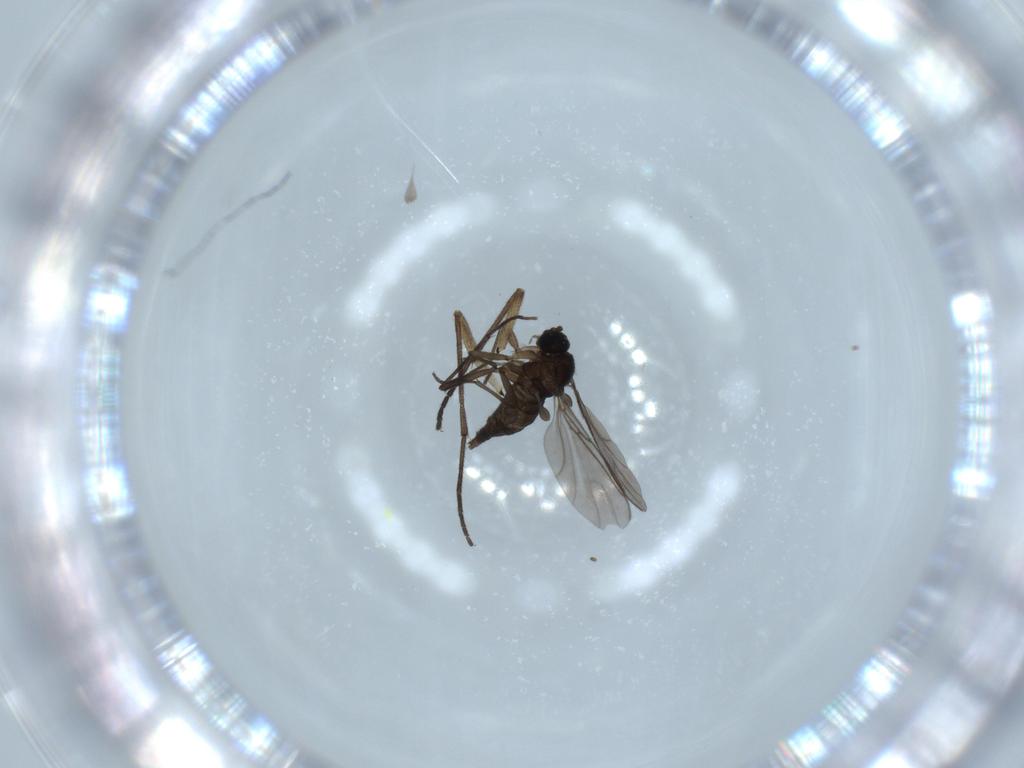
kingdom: Animalia
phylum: Arthropoda
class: Insecta
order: Diptera
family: Sciaridae
